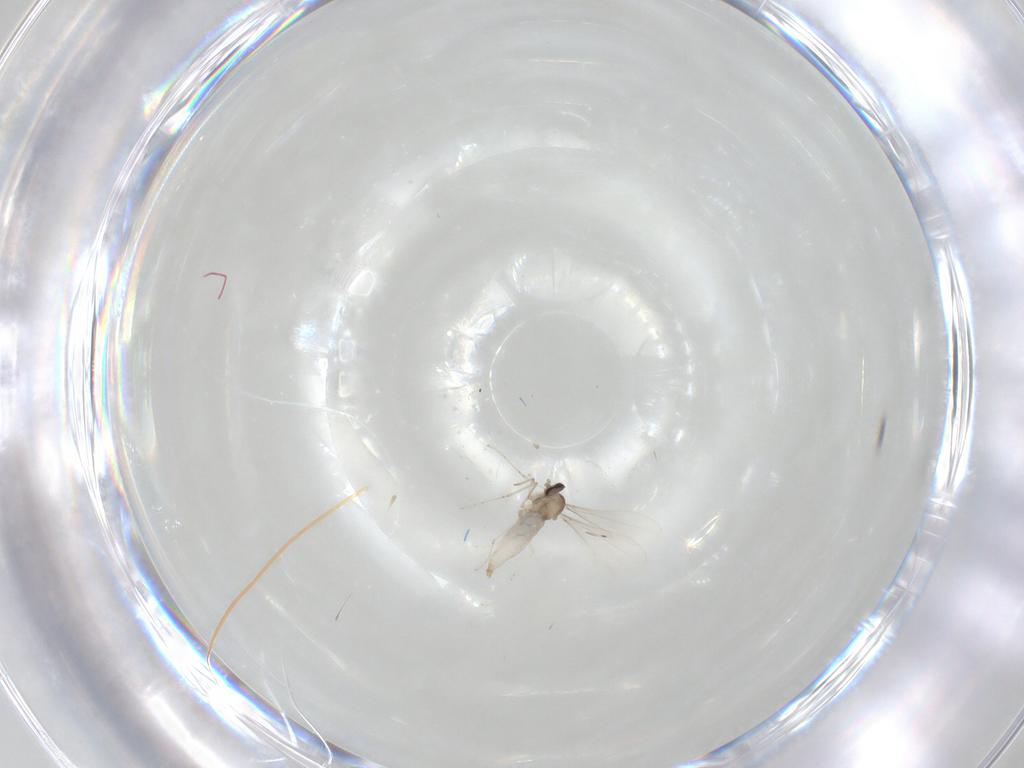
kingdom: Animalia
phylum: Arthropoda
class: Insecta
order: Diptera
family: Cecidomyiidae
